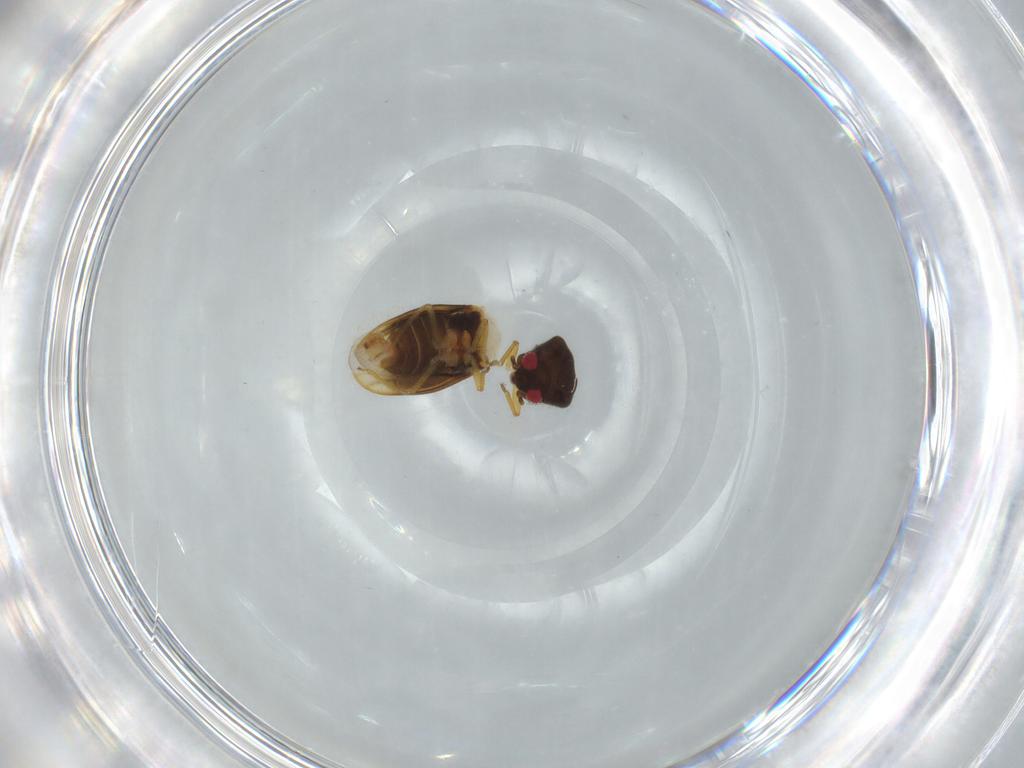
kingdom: Animalia
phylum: Arthropoda
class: Insecta
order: Hemiptera
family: Schizopteridae
